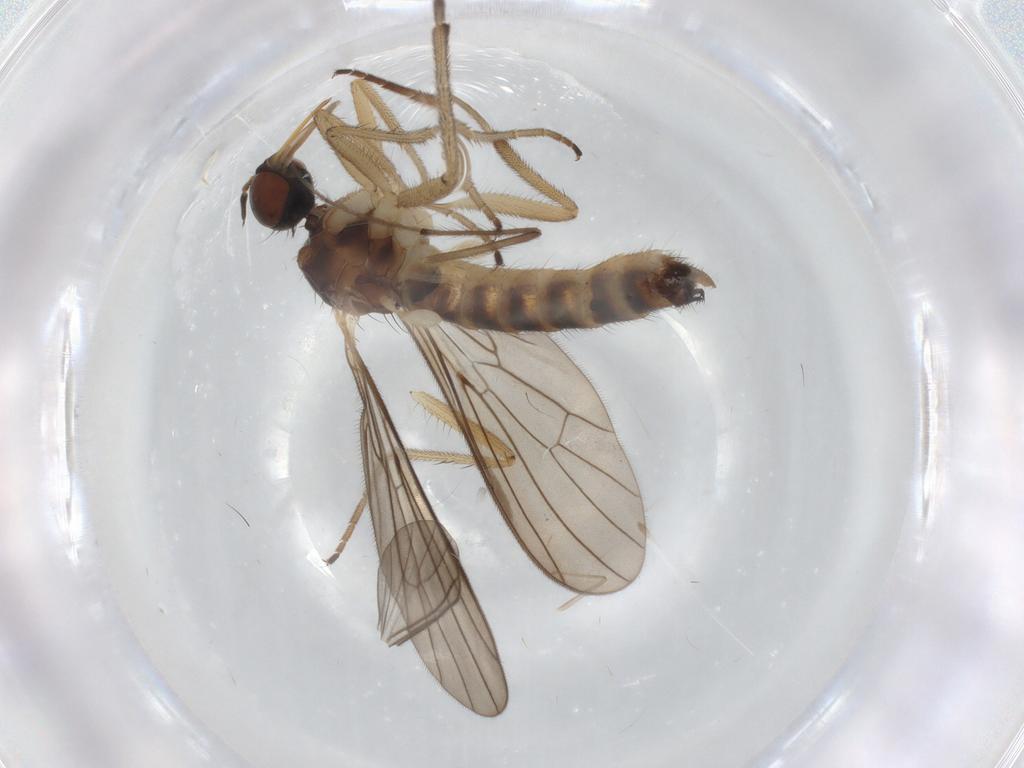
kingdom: Animalia
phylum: Arthropoda
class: Insecta
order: Diptera
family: Empididae
